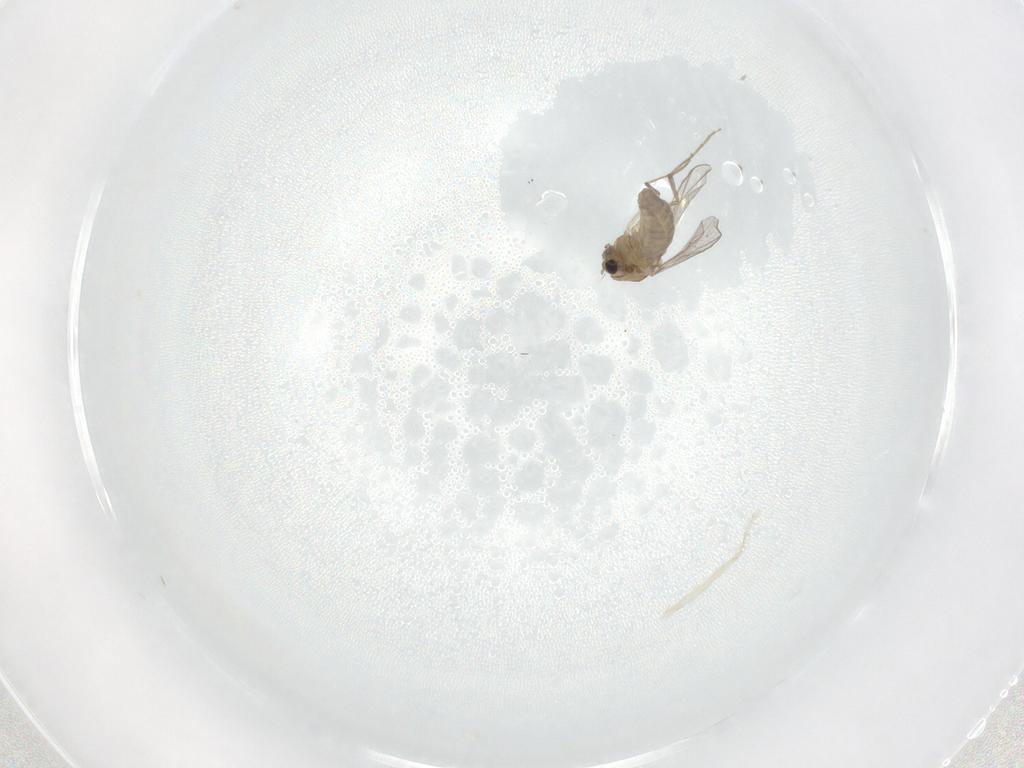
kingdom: Animalia
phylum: Arthropoda
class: Insecta
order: Diptera
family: Chironomidae
